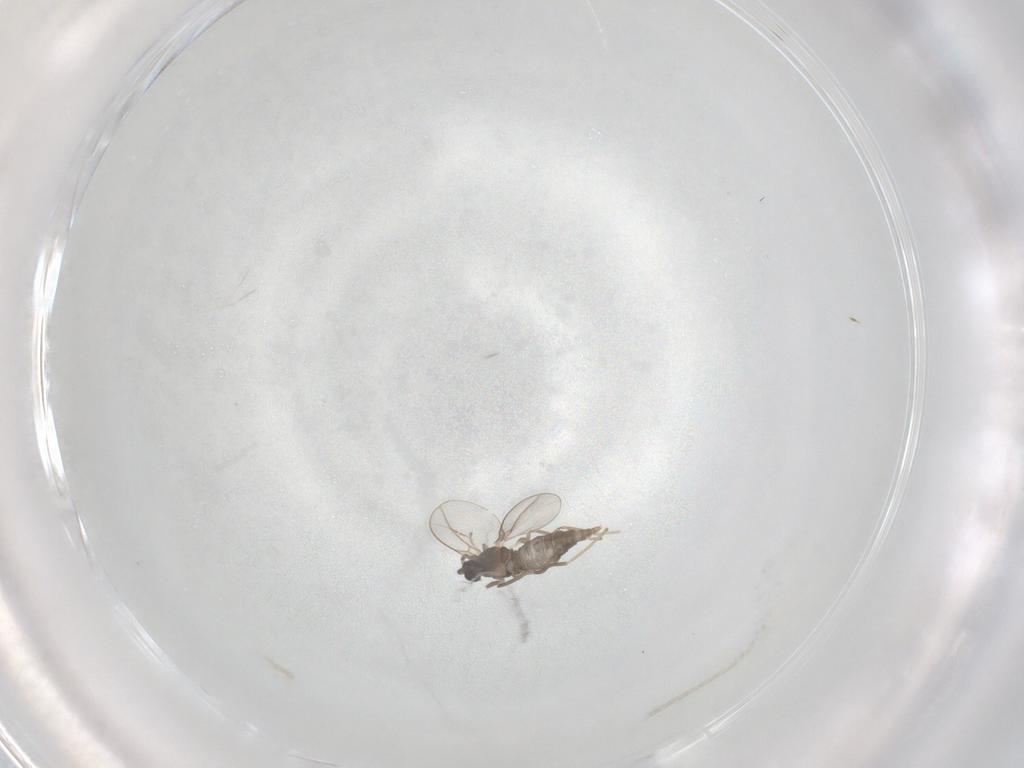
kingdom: Animalia
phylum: Arthropoda
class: Insecta
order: Diptera
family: Cecidomyiidae
